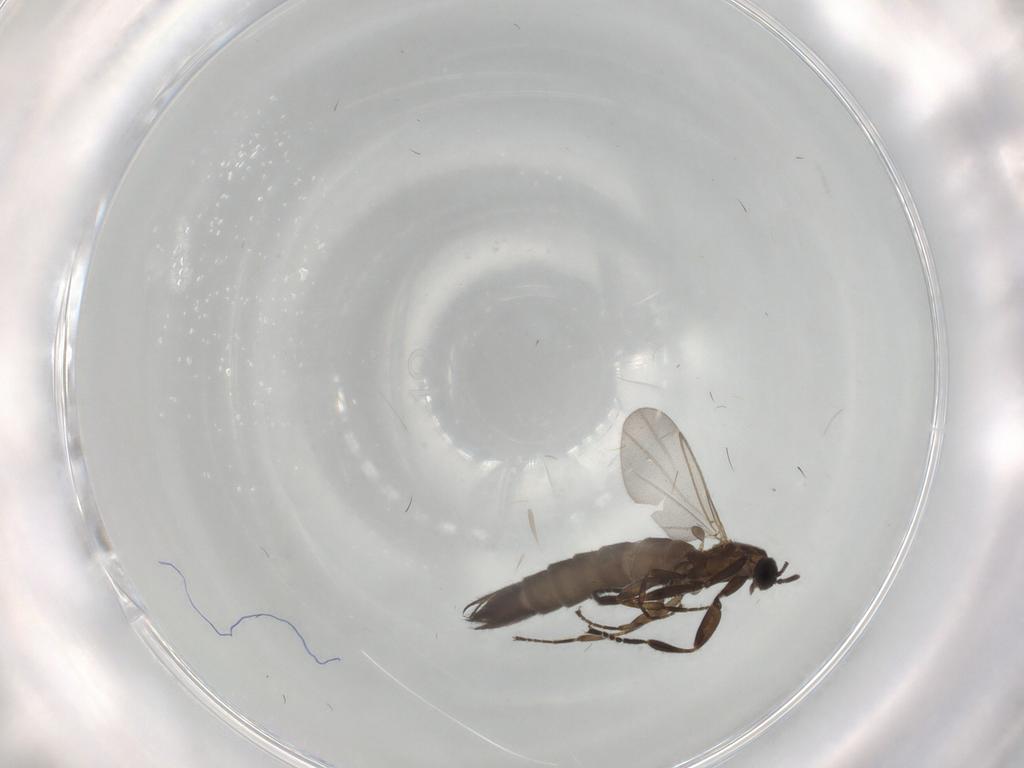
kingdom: Animalia
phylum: Arthropoda
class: Insecta
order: Diptera
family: Scatopsidae
